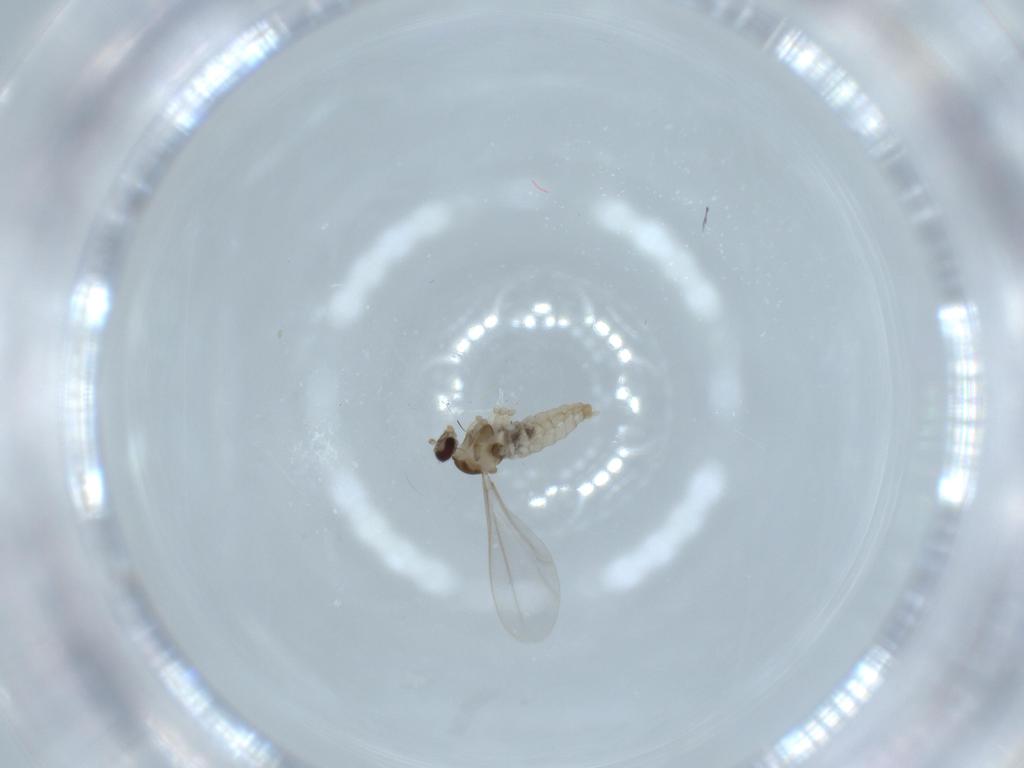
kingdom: Animalia
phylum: Arthropoda
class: Insecta
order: Diptera
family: Cecidomyiidae
